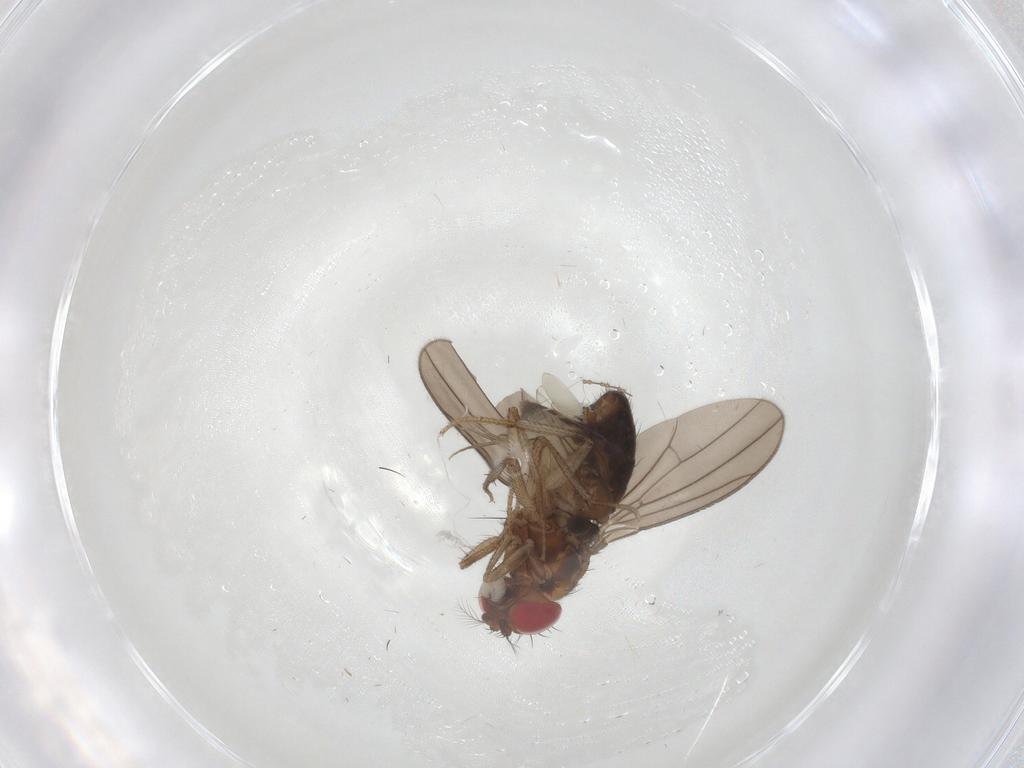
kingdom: Animalia
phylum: Arthropoda
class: Insecta
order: Diptera
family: Drosophilidae
